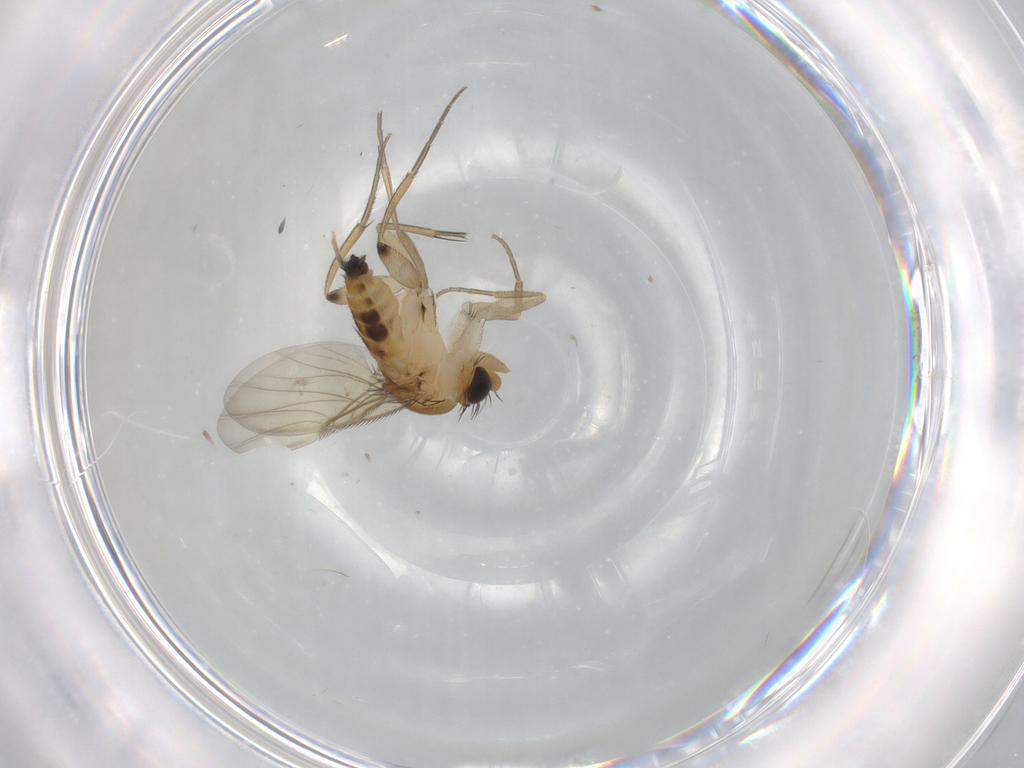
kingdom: Animalia
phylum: Arthropoda
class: Insecta
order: Diptera
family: Phoridae
